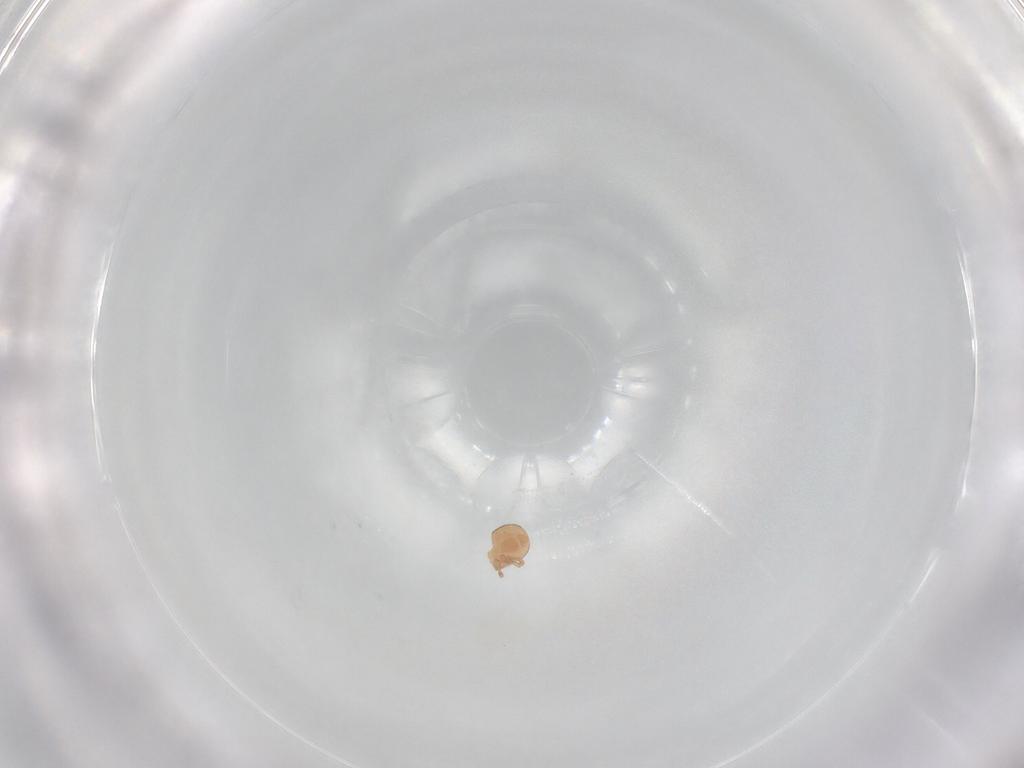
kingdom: Animalia
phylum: Arthropoda
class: Arachnida
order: Mesostigmata
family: Laelapidae
